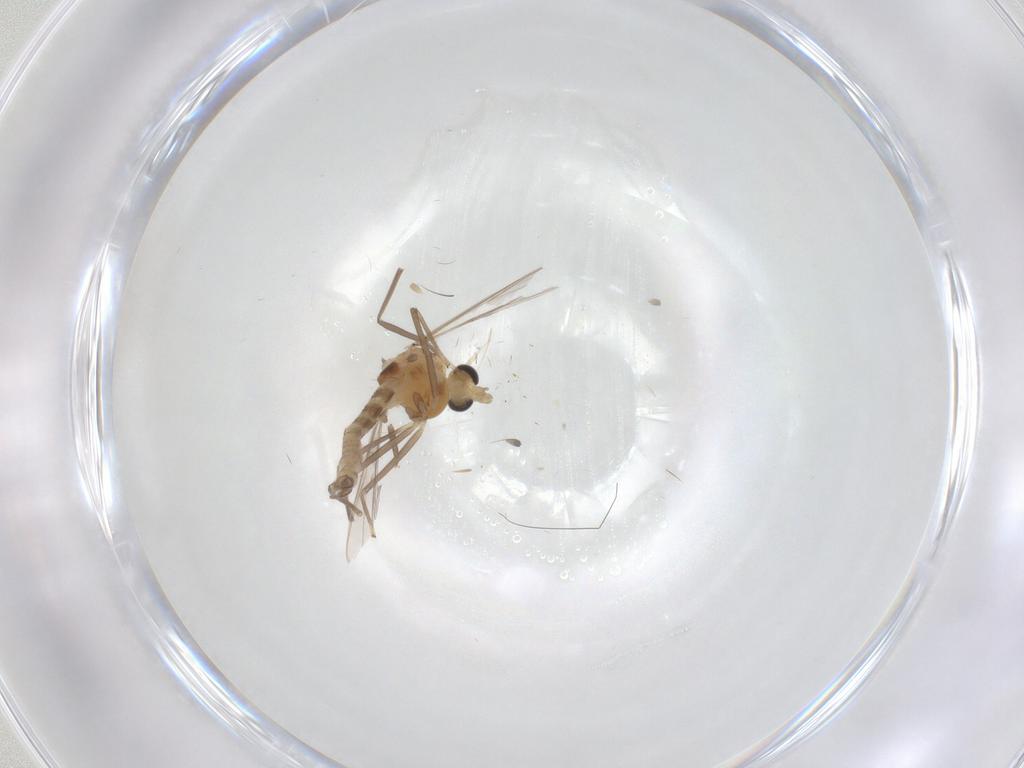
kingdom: Animalia
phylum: Arthropoda
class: Insecta
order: Diptera
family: Chironomidae
